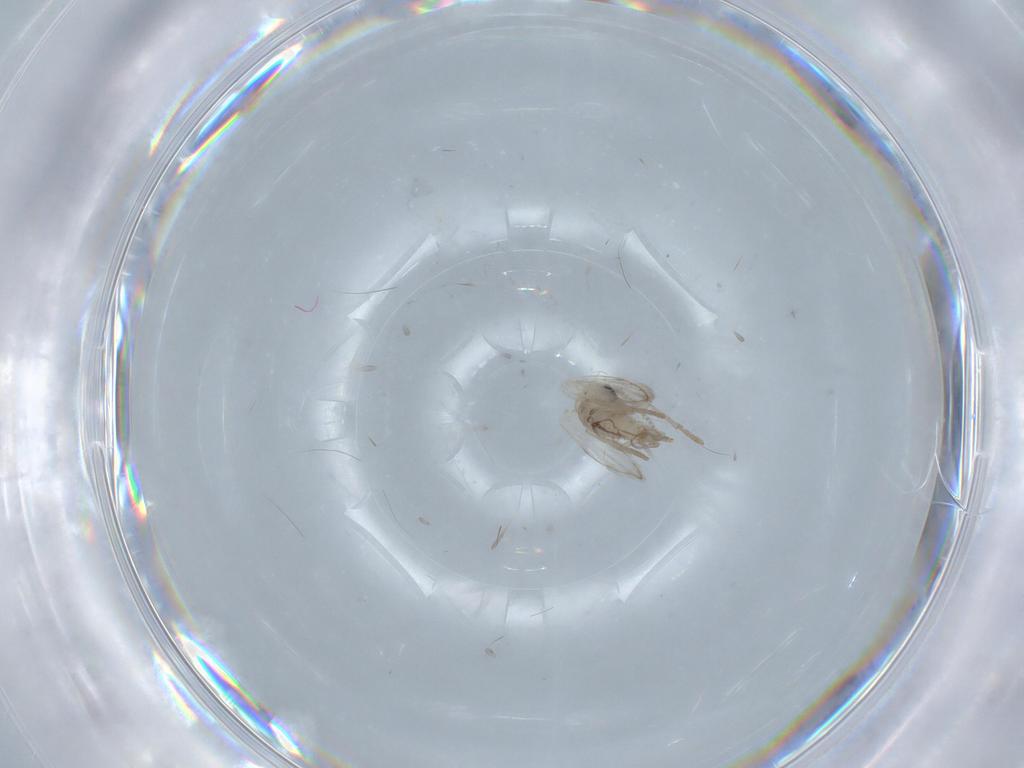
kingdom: Animalia
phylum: Arthropoda
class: Insecta
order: Diptera
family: Psychodidae
